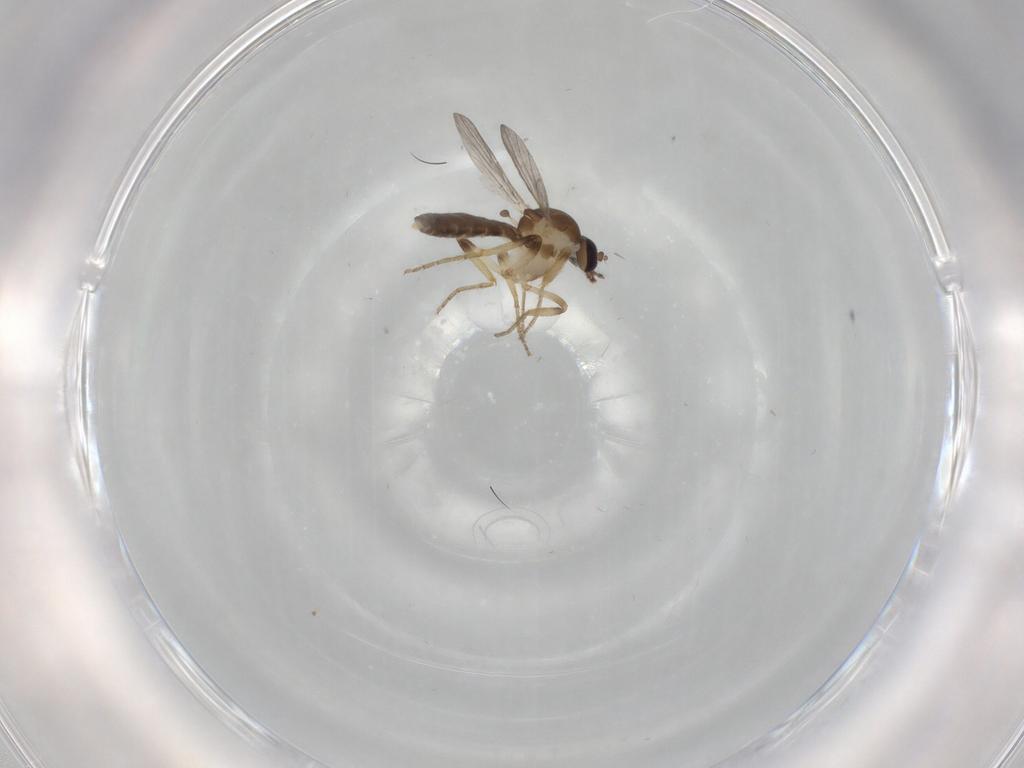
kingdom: Animalia
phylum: Arthropoda
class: Insecta
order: Diptera
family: Ceratopogonidae
